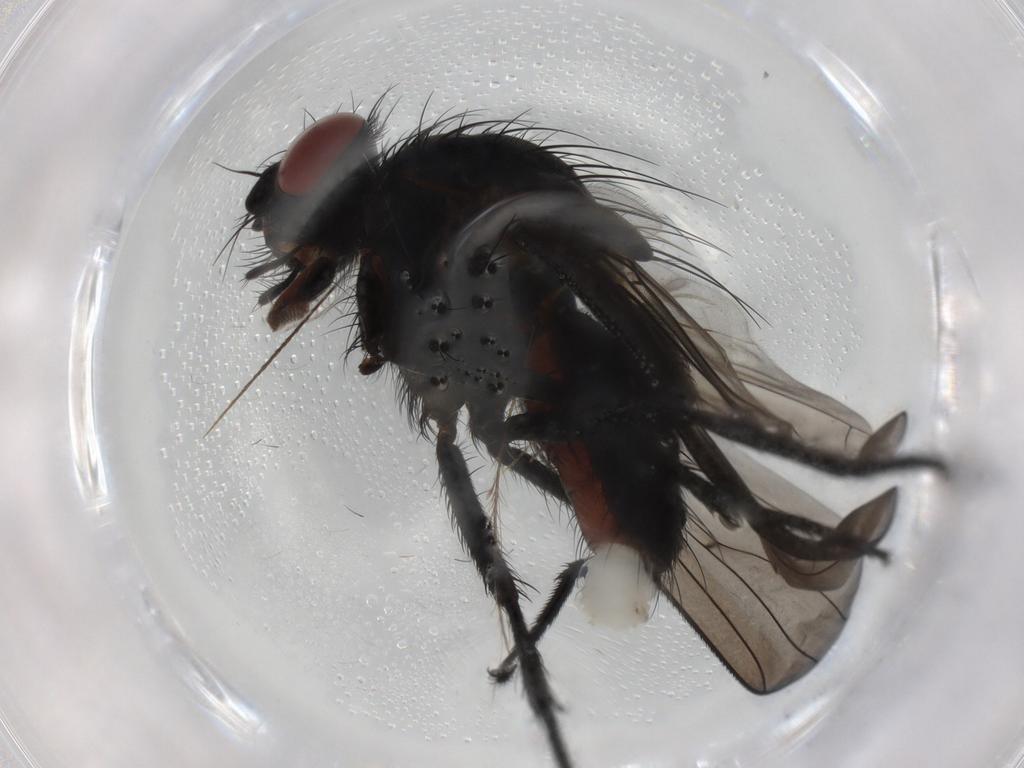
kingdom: Animalia
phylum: Arthropoda
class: Insecta
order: Diptera
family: Cecidomyiidae
